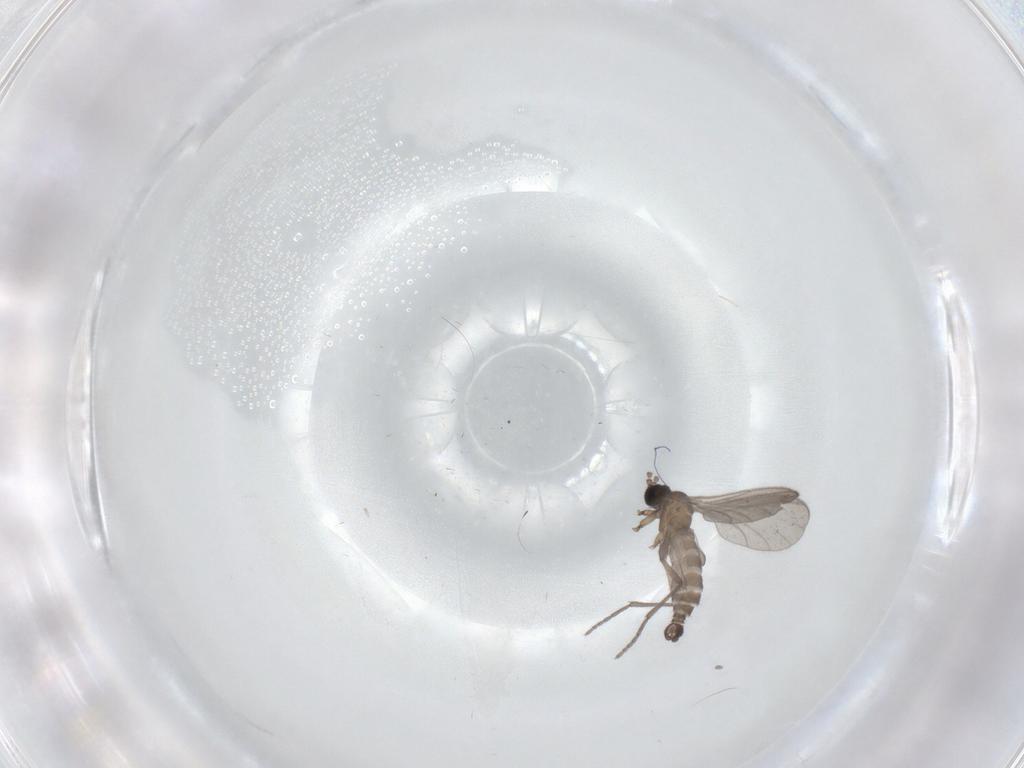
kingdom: Animalia
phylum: Arthropoda
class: Insecta
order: Diptera
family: Sciaridae
